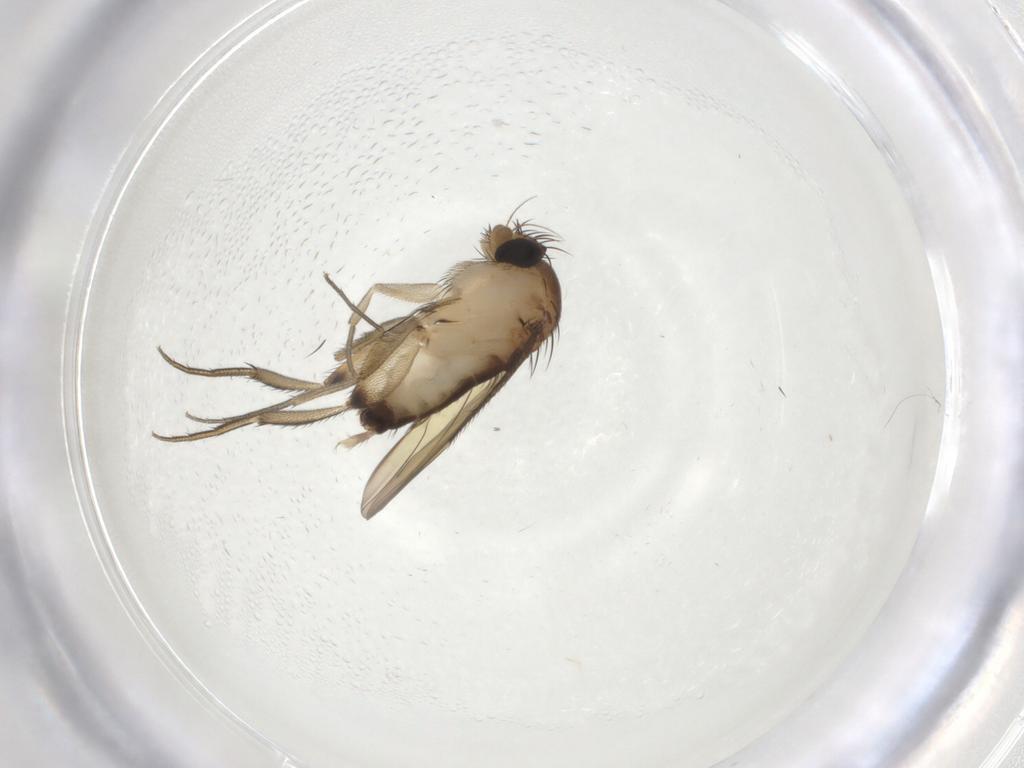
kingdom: Animalia
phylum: Arthropoda
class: Insecta
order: Diptera
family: Phoridae
